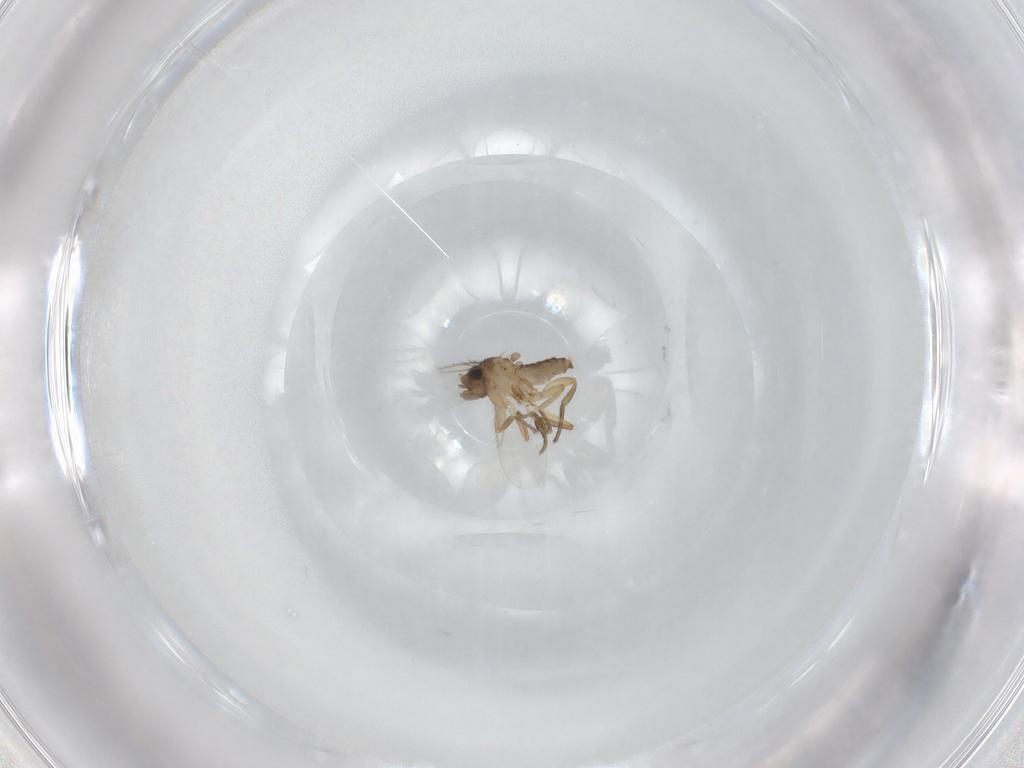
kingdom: Animalia
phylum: Arthropoda
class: Insecta
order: Diptera
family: Phoridae
